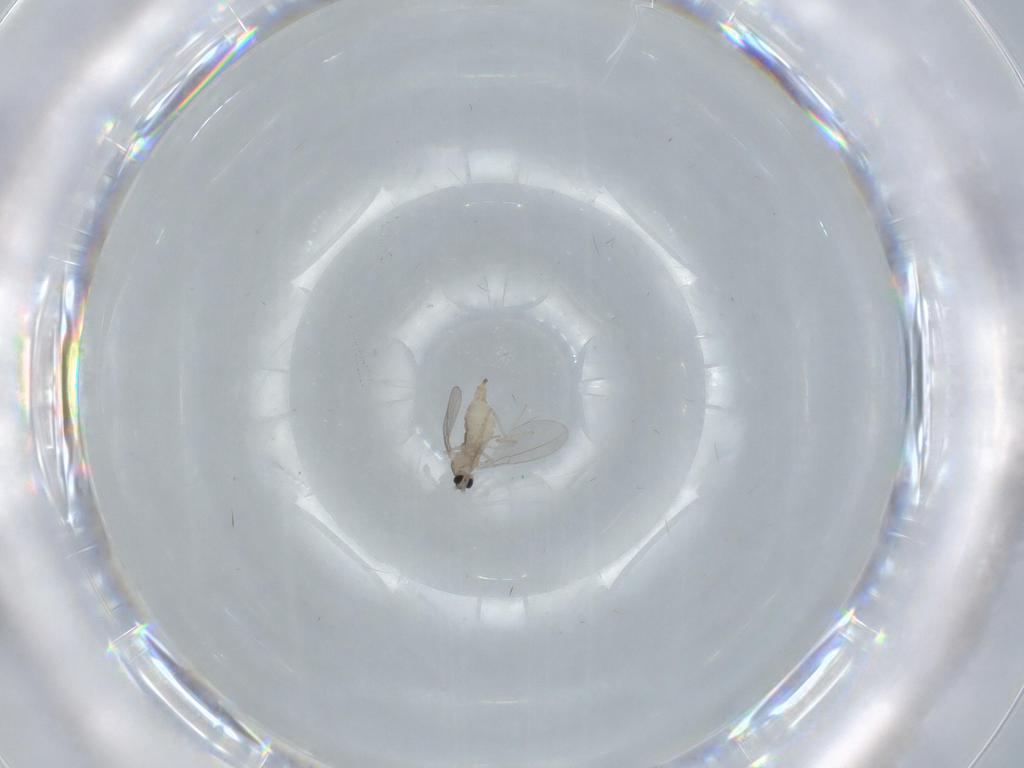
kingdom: Animalia
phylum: Arthropoda
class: Insecta
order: Diptera
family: Cecidomyiidae
